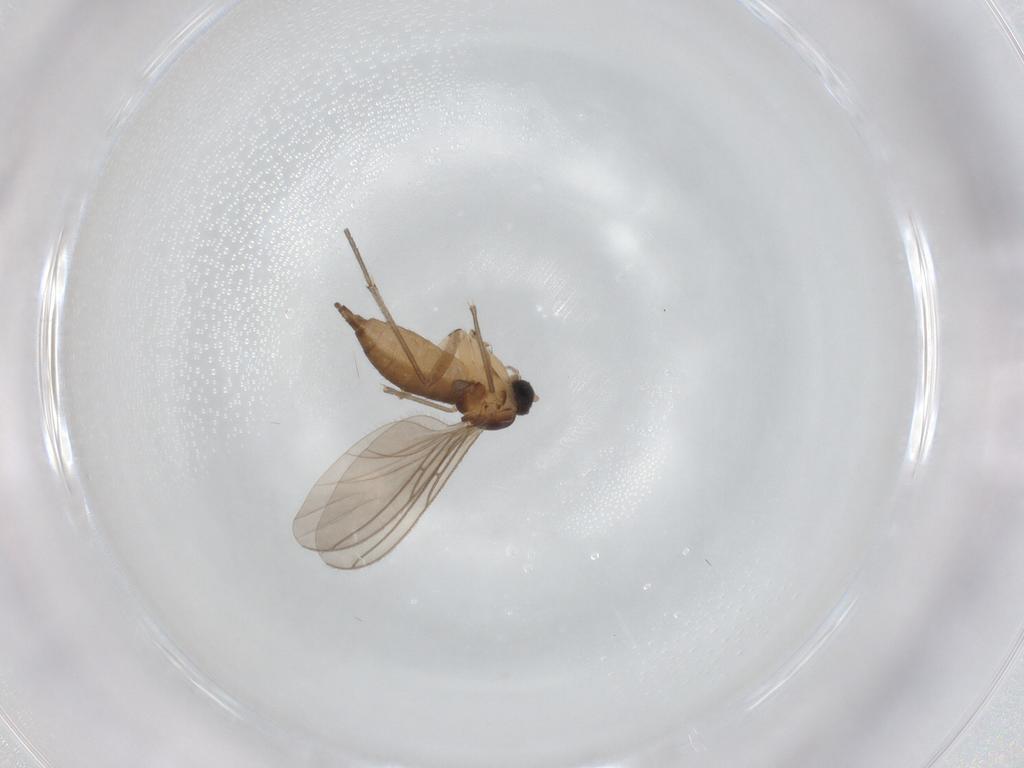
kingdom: Animalia
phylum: Arthropoda
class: Insecta
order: Diptera
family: Sciaridae
